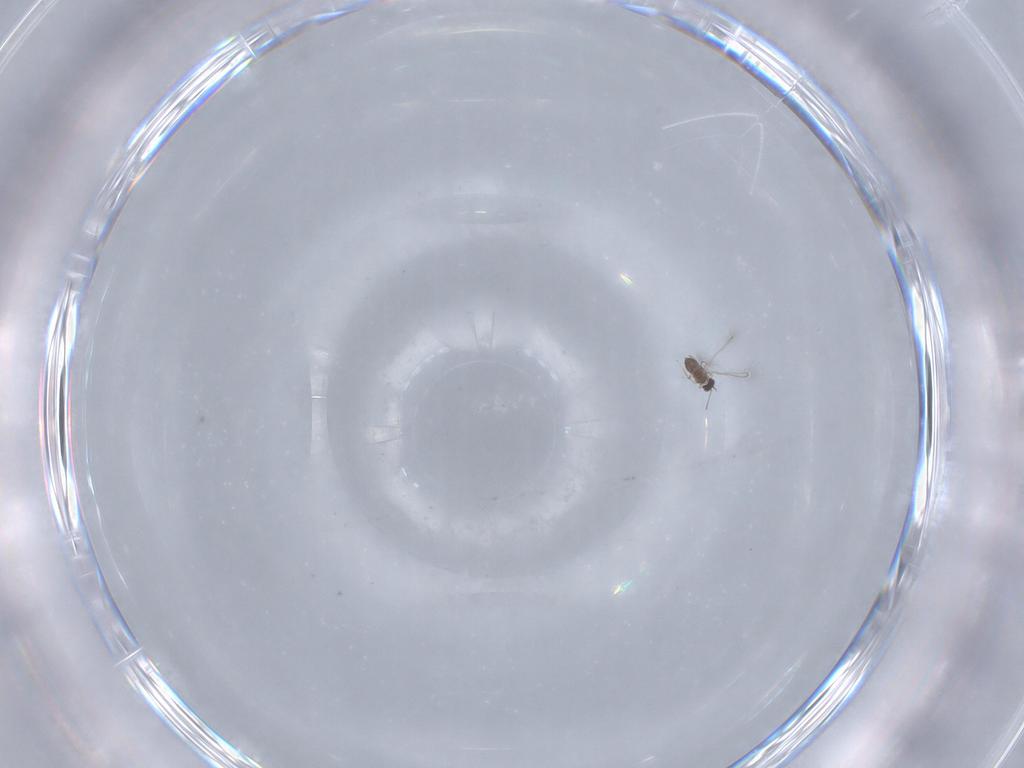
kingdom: Animalia
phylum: Arthropoda
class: Insecta
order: Hymenoptera
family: Mymaridae
